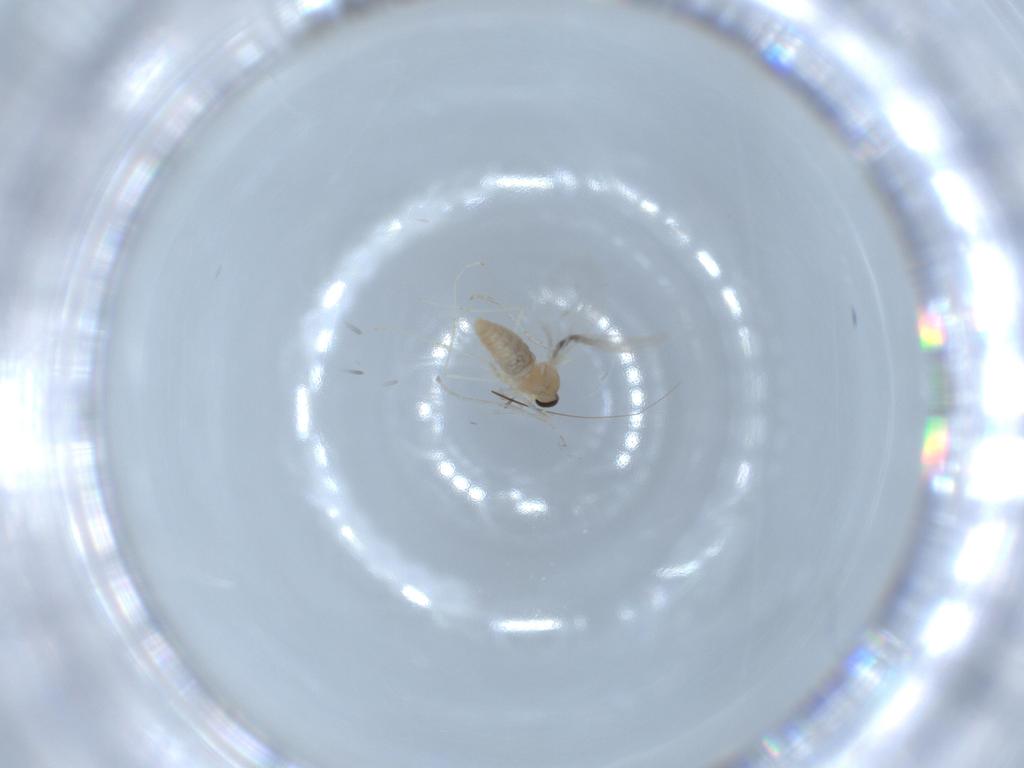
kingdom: Animalia
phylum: Arthropoda
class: Insecta
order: Diptera
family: Cecidomyiidae
